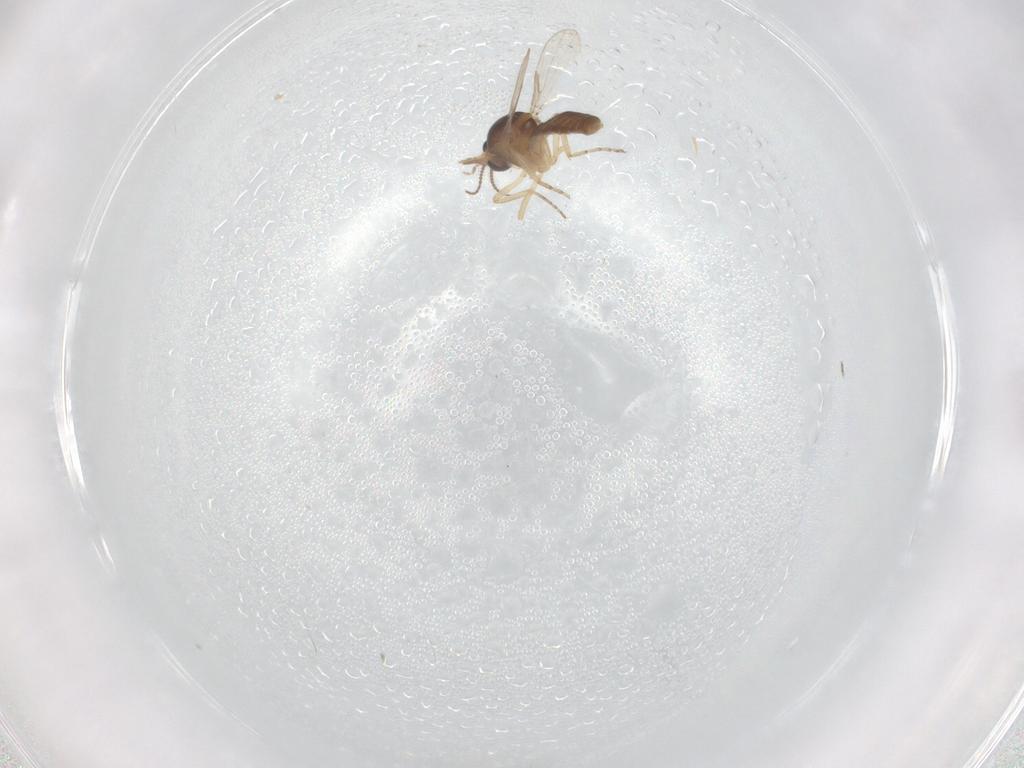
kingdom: Animalia
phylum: Arthropoda
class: Insecta
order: Diptera
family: Ceratopogonidae
